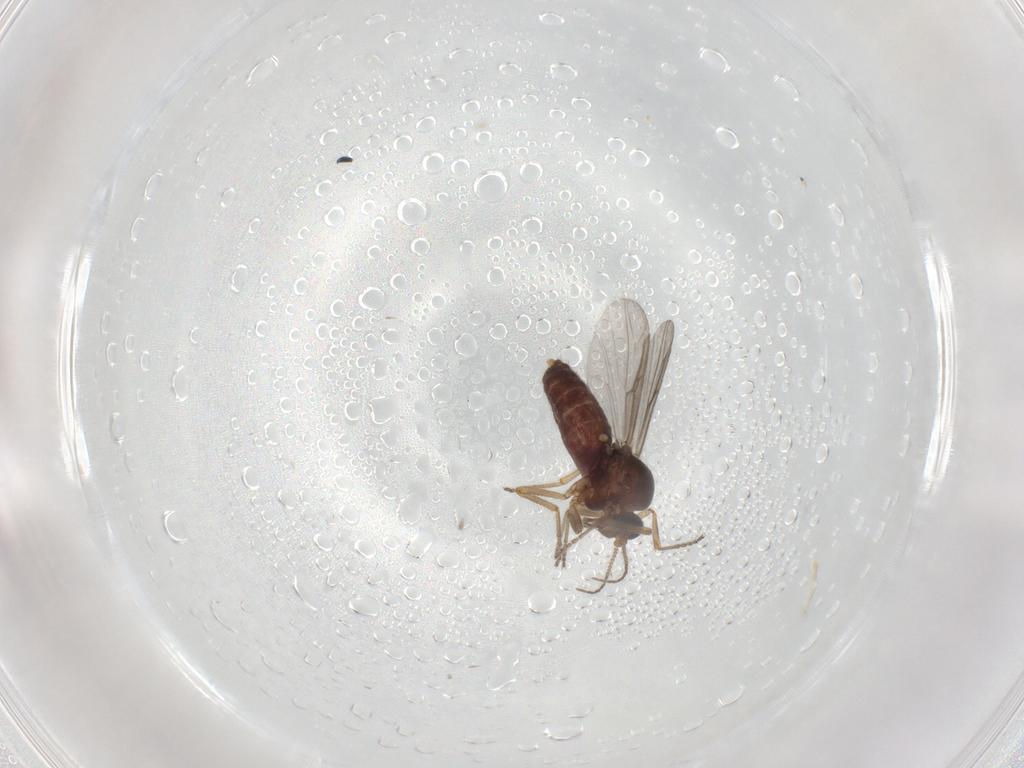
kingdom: Animalia
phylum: Arthropoda
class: Insecta
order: Diptera
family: Ceratopogonidae
